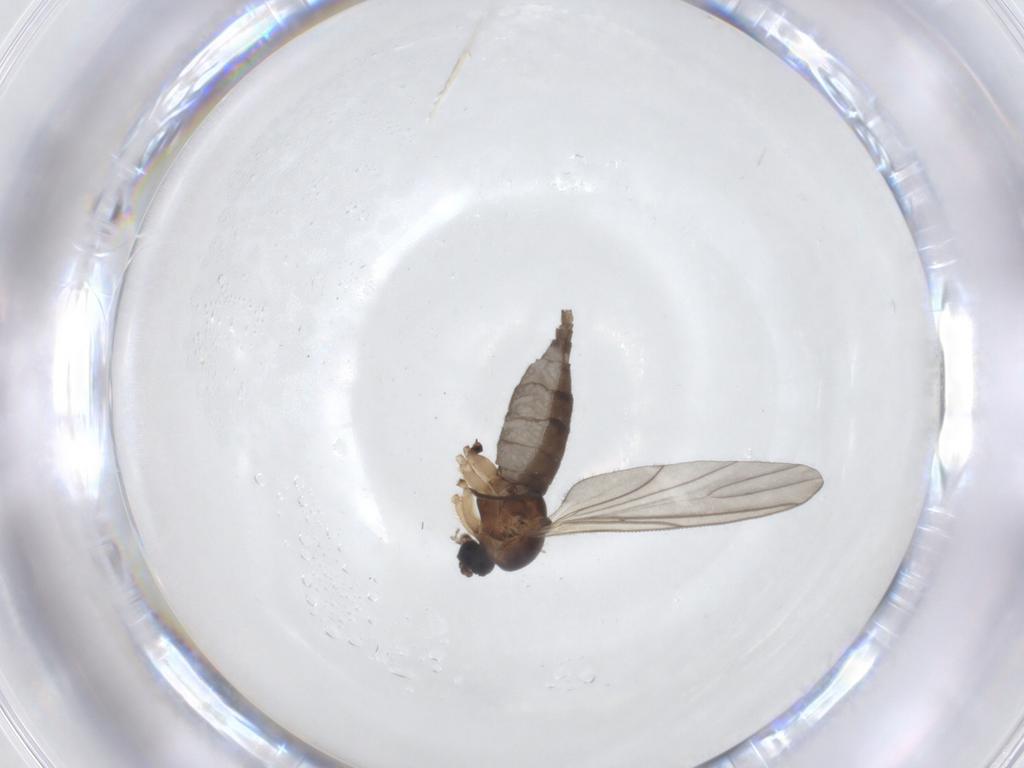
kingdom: Animalia
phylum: Arthropoda
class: Insecta
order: Diptera
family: Sciaridae
